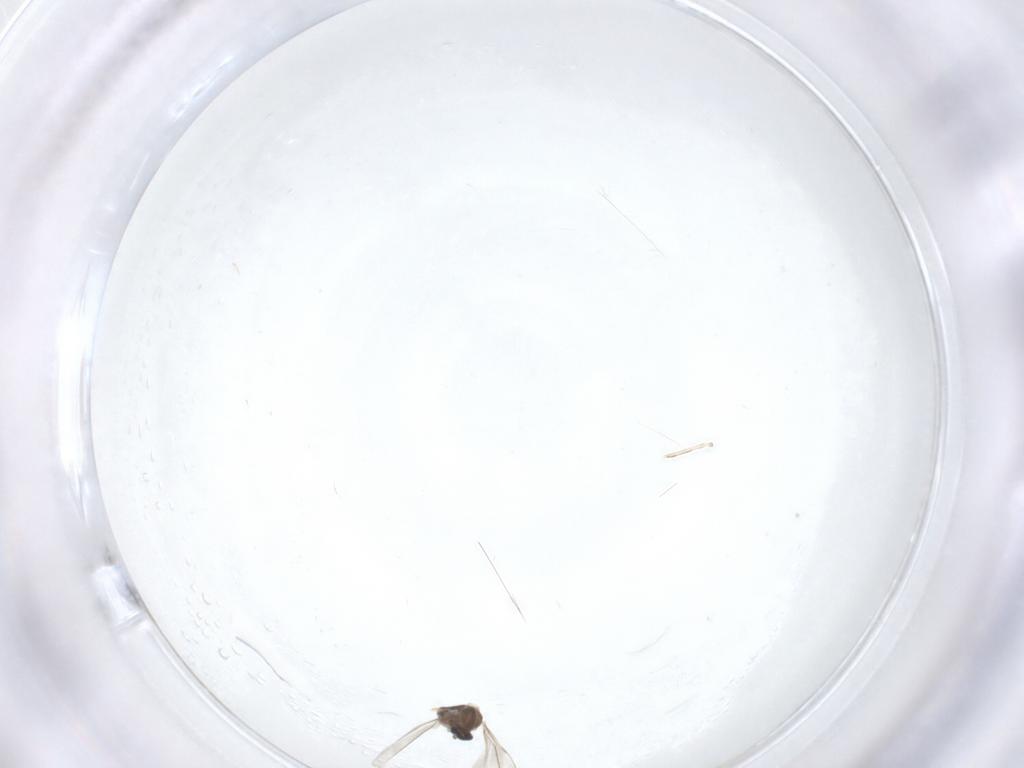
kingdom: Animalia
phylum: Arthropoda
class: Insecta
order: Diptera
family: Cecidomyiidae
